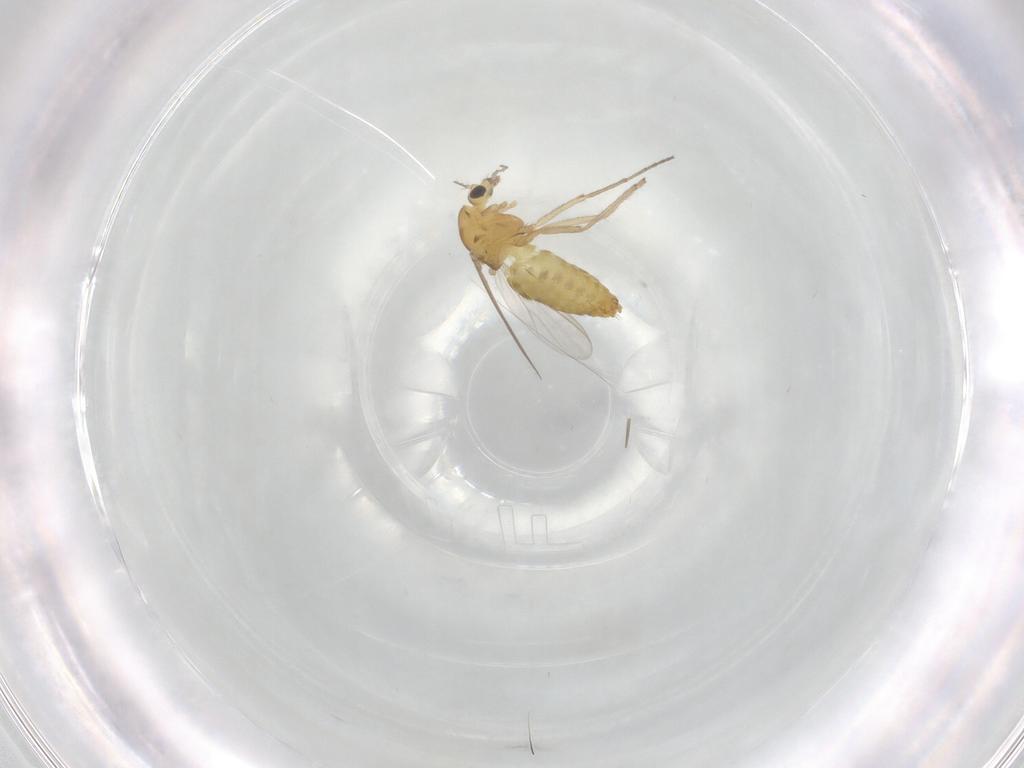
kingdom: Animalia
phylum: Arthropoda
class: Insecta
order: Diptera
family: Chironomidae
